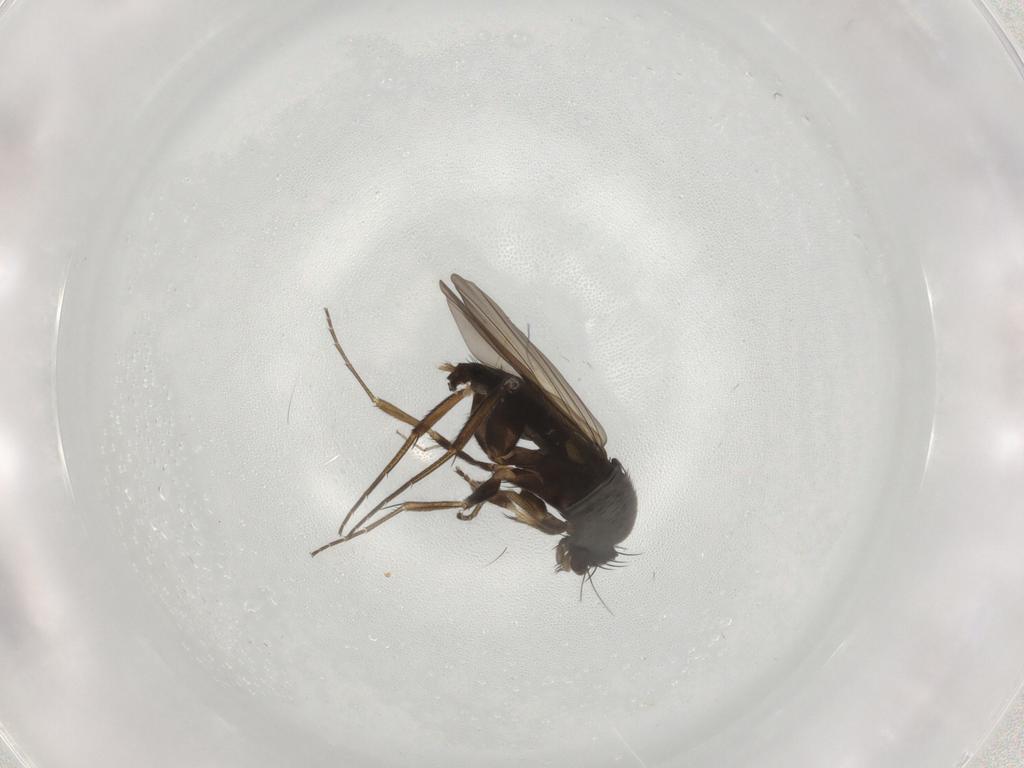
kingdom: Animalia
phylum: Arthropoda
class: Insecta
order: Diptera
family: Phoridae
